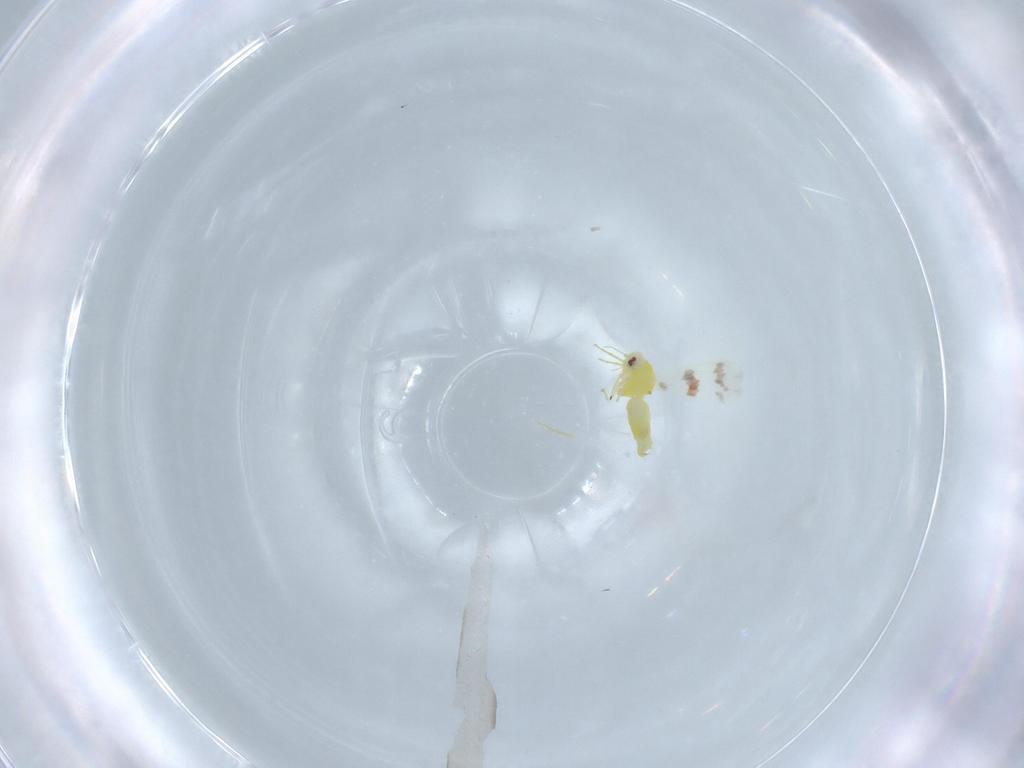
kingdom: Animalia
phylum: Arthropoda
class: Insecta
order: Hemiptera
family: Aleyrodidae
